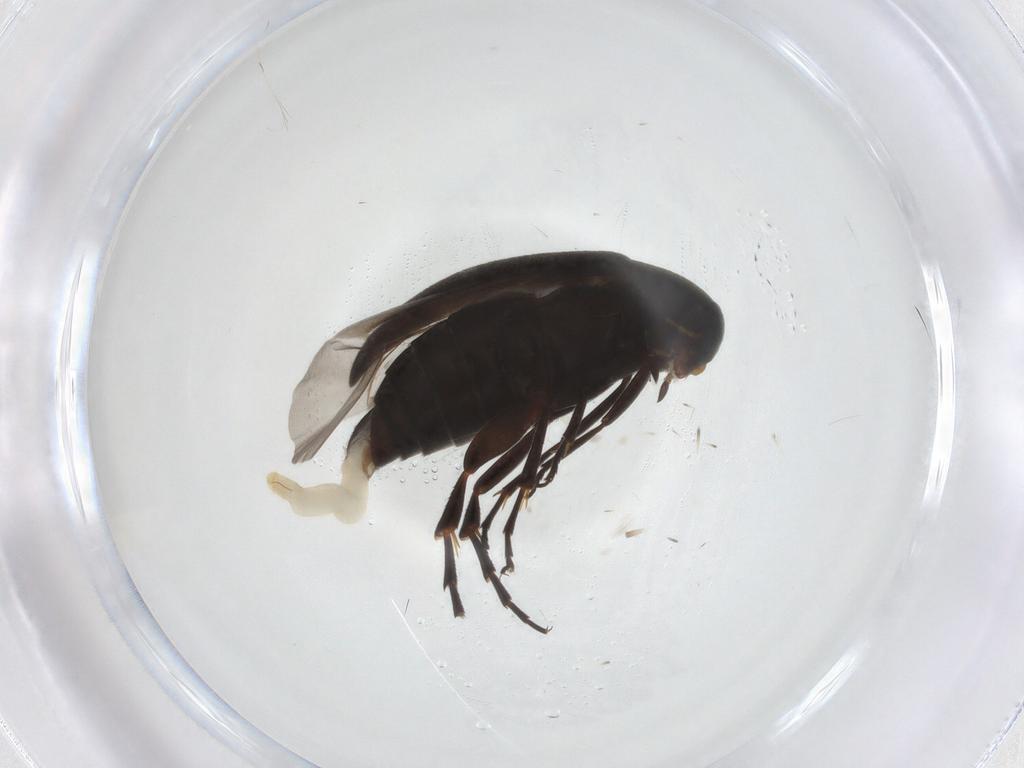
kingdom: Animalia
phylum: Arthropoda
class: Insecta
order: Coleoptera
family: Scraptiidae
